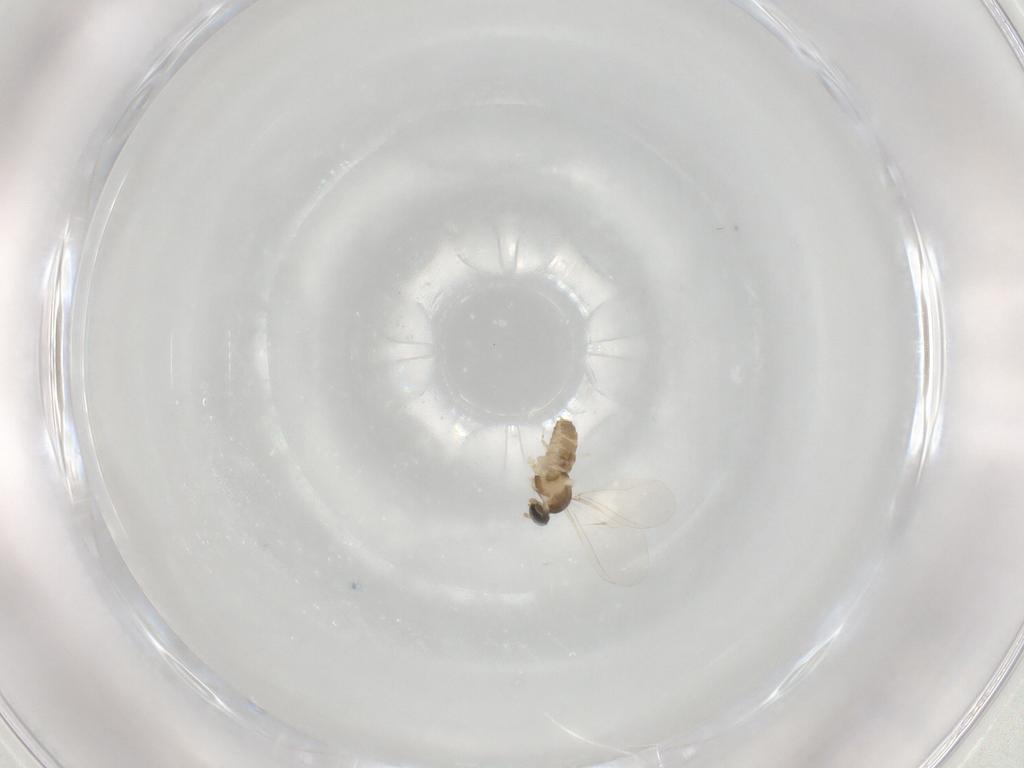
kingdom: Animalia
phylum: Arthropoda
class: Insecta
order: Diptera
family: Cecidomyiidae
